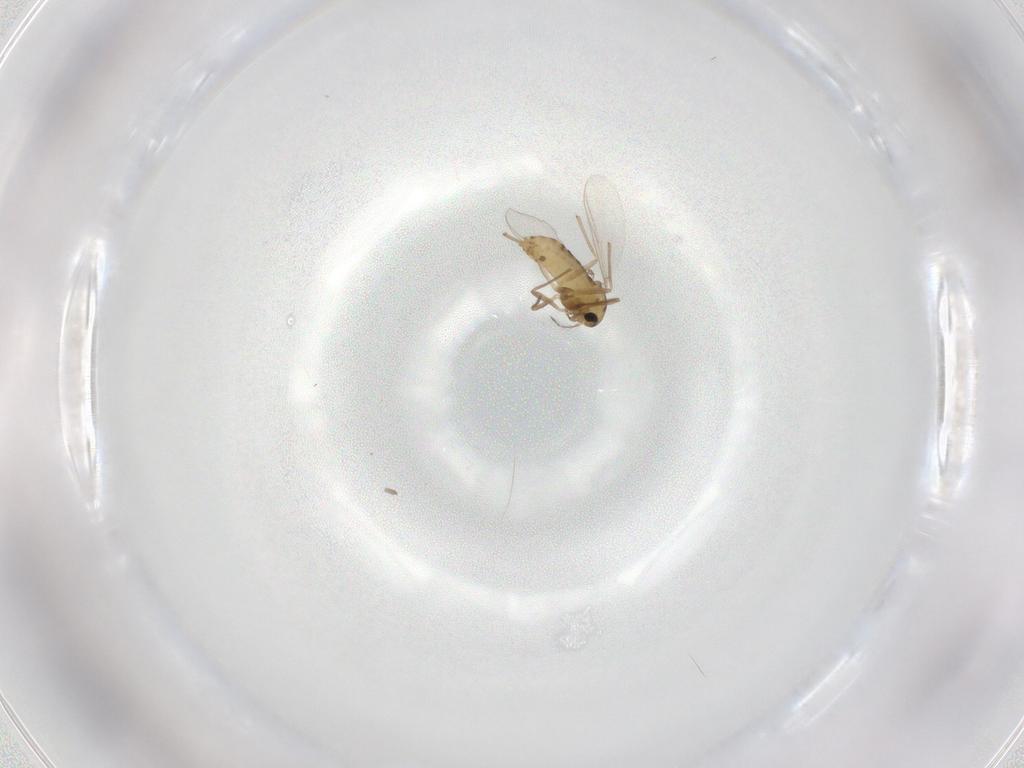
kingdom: Animalia
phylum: Arthropoda
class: Insecta
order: Diptera
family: Chironomidae
